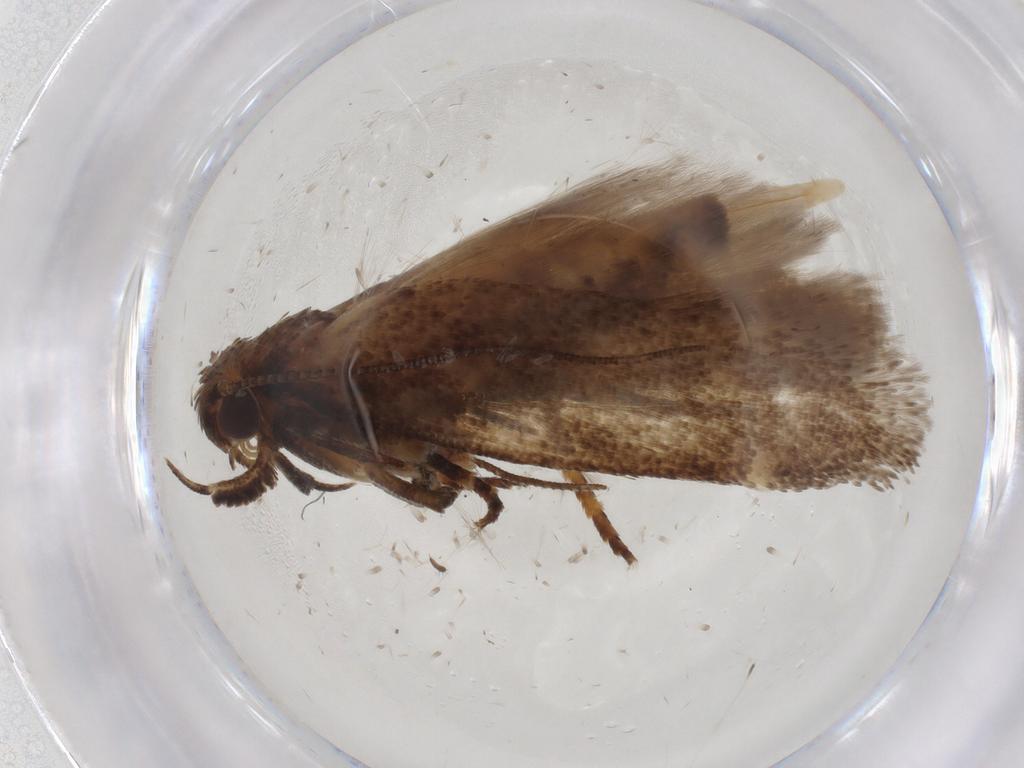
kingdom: Animalia
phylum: Arthropoda
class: Insecta
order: Lepidoptera
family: Gelechiidae
